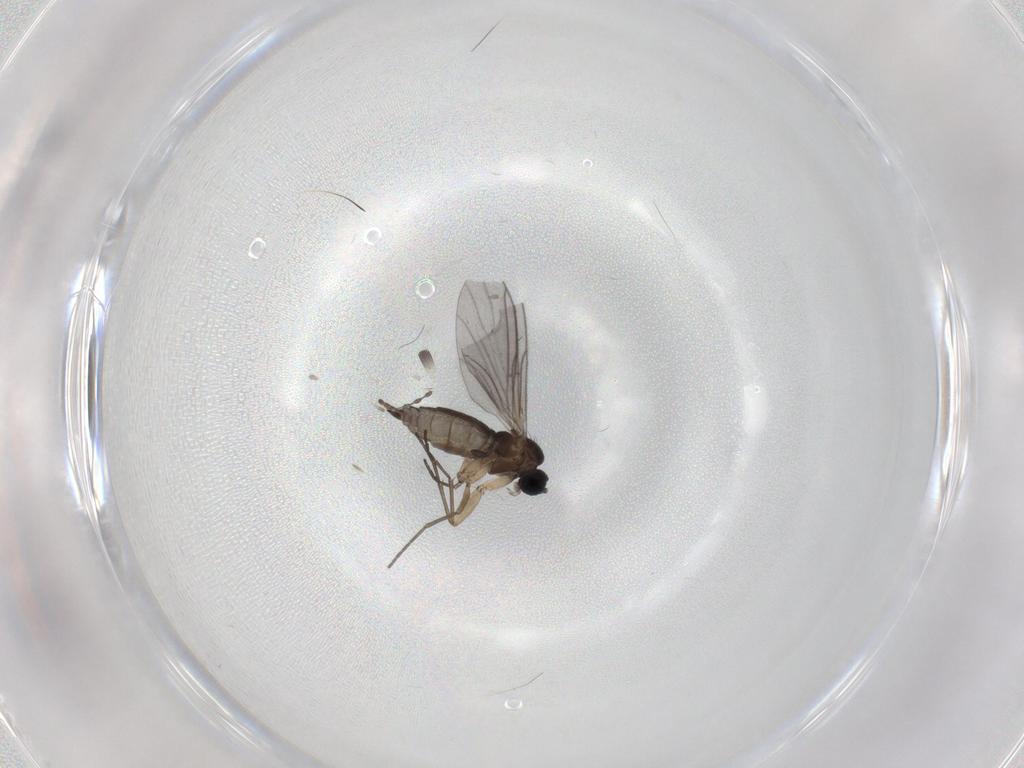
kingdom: Animalia
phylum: Arthropoda
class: Insecta
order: Diptera
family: Sciaridae
